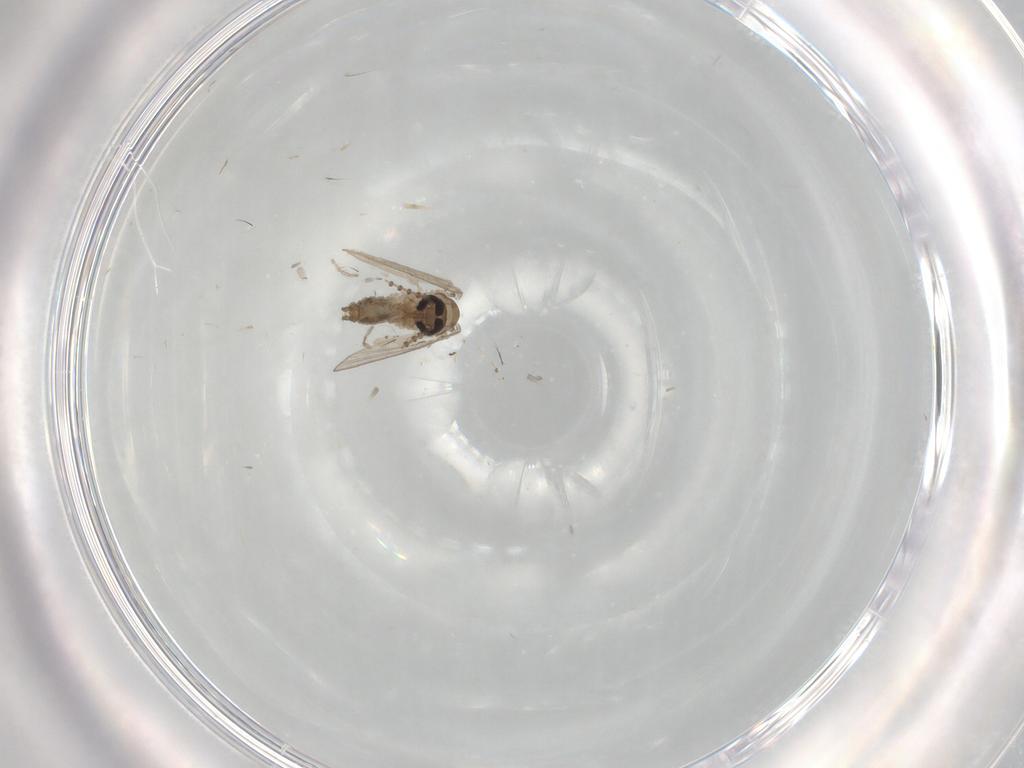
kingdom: Animalia
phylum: Arthropoda
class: Insecta
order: Diptera
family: Psychodidae
